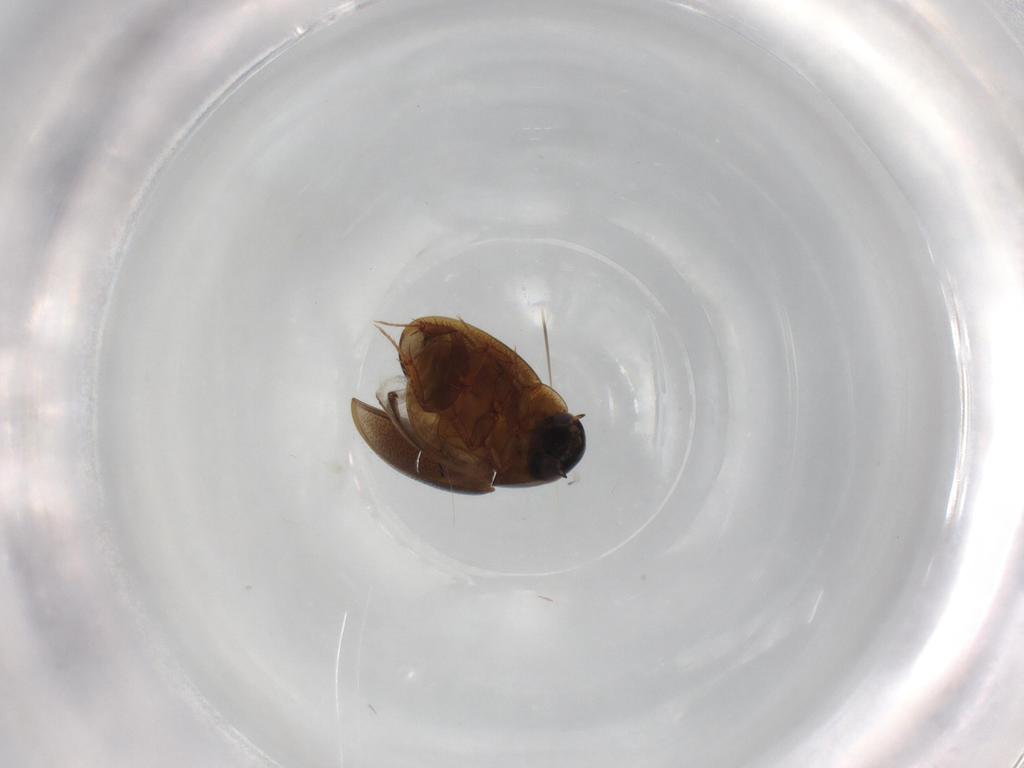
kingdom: Animalia
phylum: Arthropoda
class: Insecta
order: Coleoptera
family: Hydrophilidae
